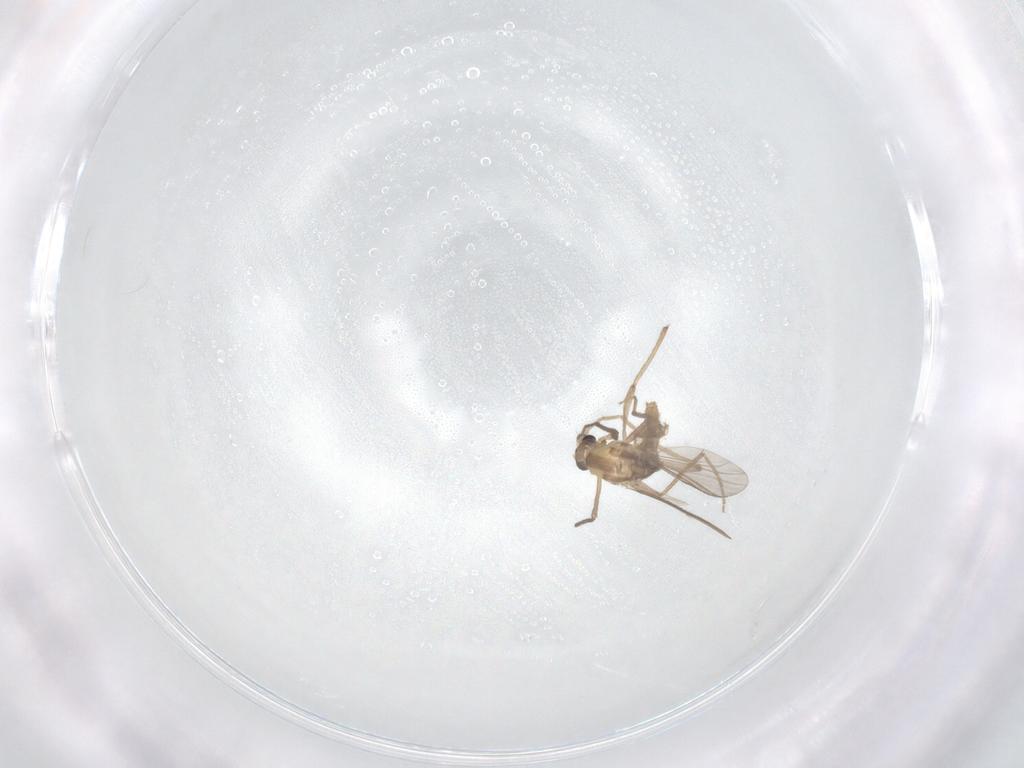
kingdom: Animalia
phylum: Arthropoda
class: Insecta
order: Diptera
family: Chironomidae
